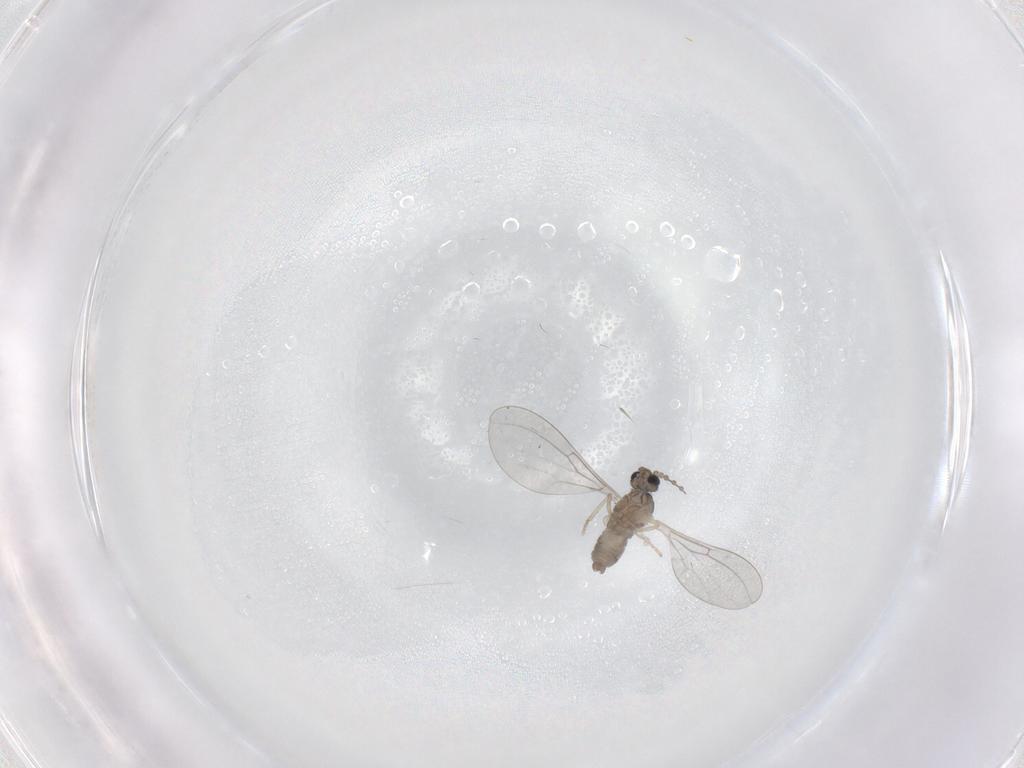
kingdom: Animalia
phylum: Arthropoda
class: Insecta
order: Diptera
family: Cecidomyiidae
